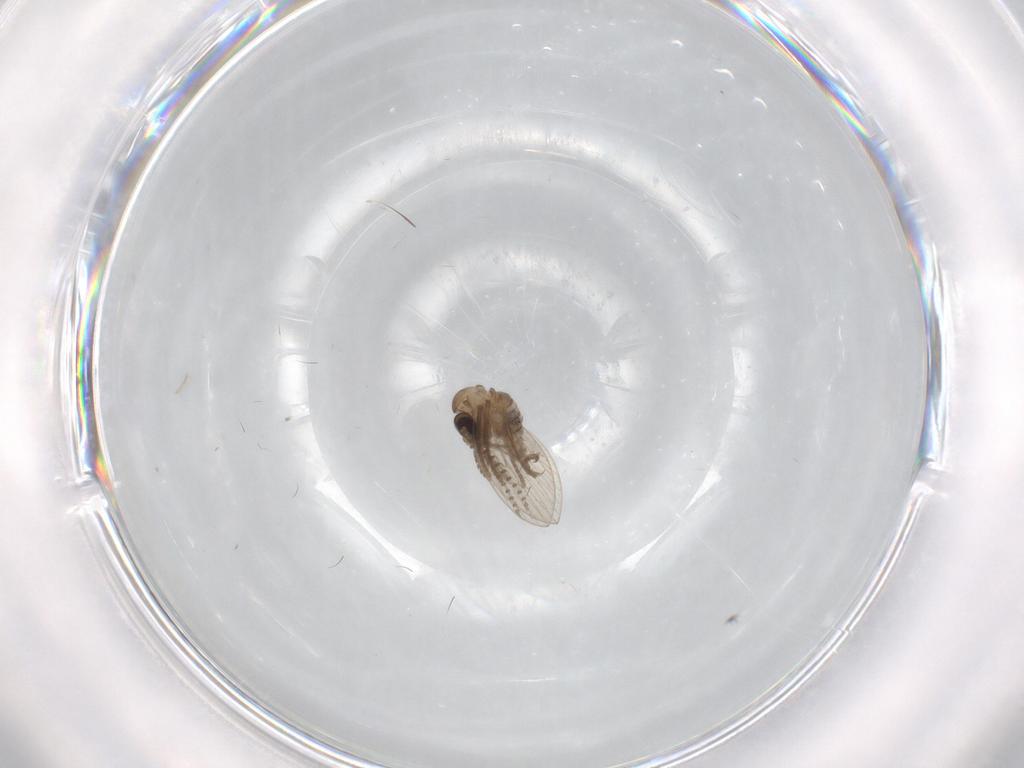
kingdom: Animalia
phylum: Arthropoda
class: Insecta
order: Diptera
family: Psychodidae
